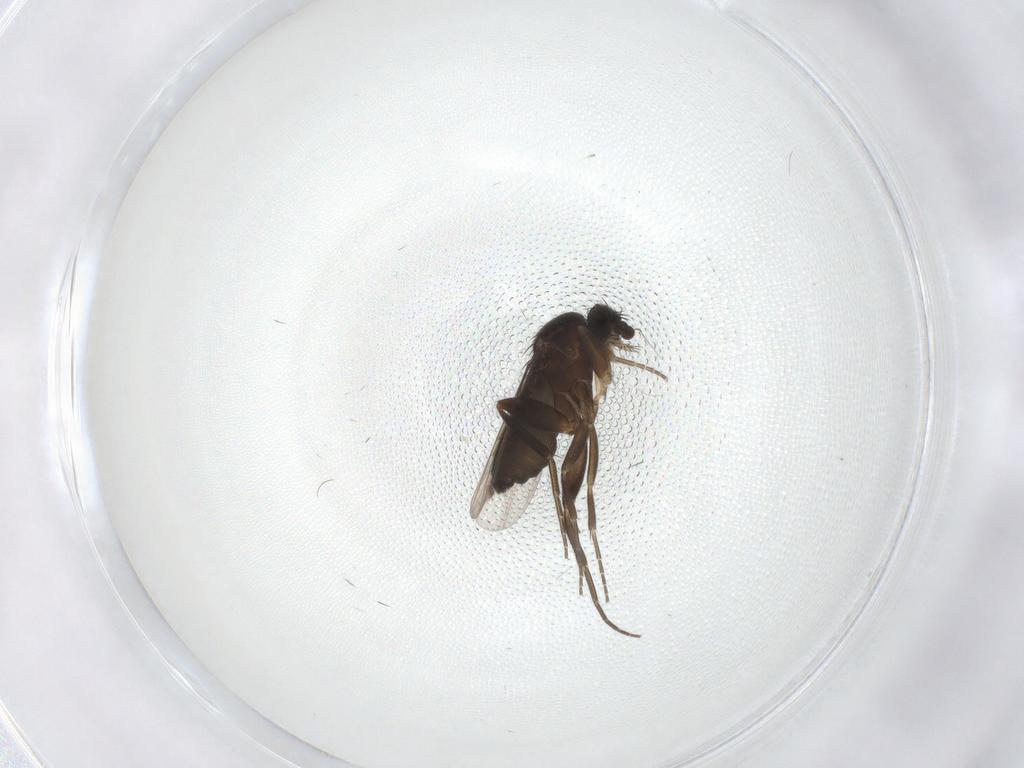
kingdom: Animalia
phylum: Arthropoda
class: Insecta
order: Diptera
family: Phoridae
